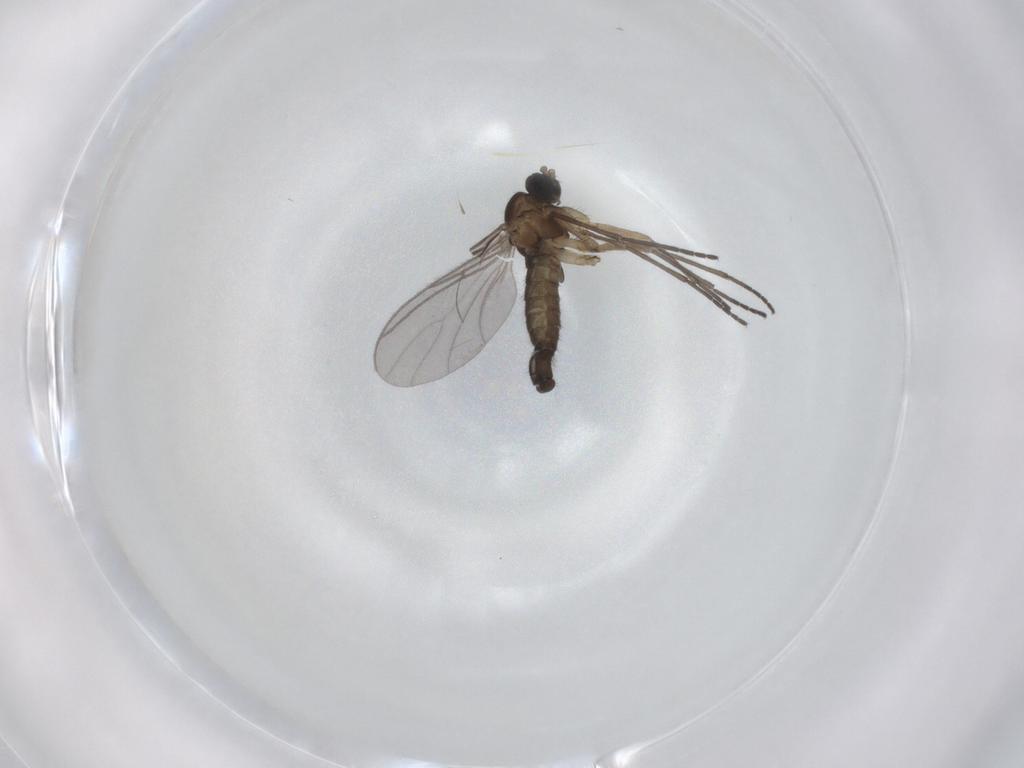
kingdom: Animalia
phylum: Arthropoda
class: Insecta
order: Diptera
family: Sciaridae
